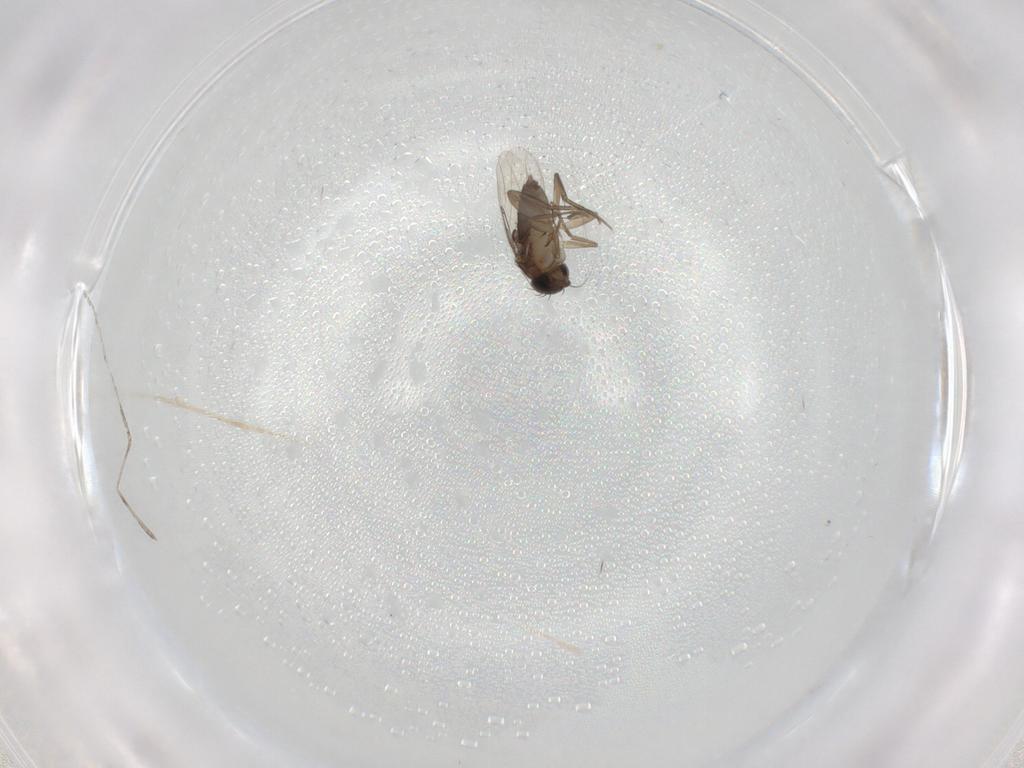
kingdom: Animalia
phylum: Arthropoda
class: Insecta
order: Diptera
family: Phoridae
